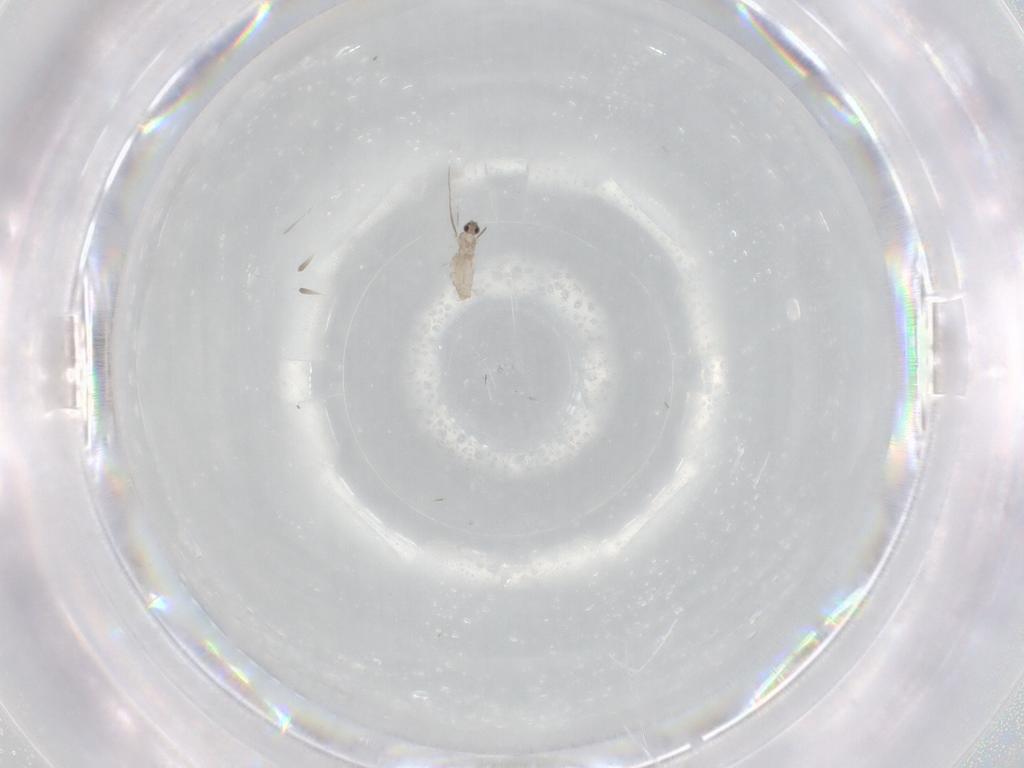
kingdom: Animalia
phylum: Arthropoda
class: Insecta
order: Diptera
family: Cecidomyiidae
